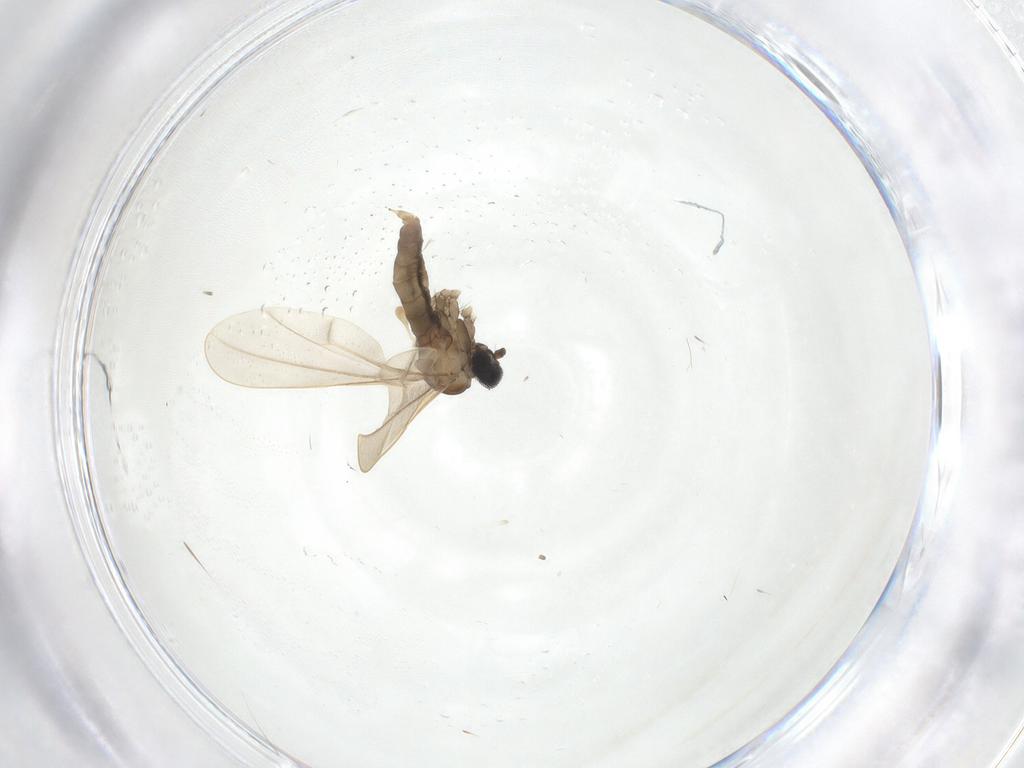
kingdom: Animalia
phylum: Arthropoda
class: Insecta
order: Diptera
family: Cecidomyiidae
